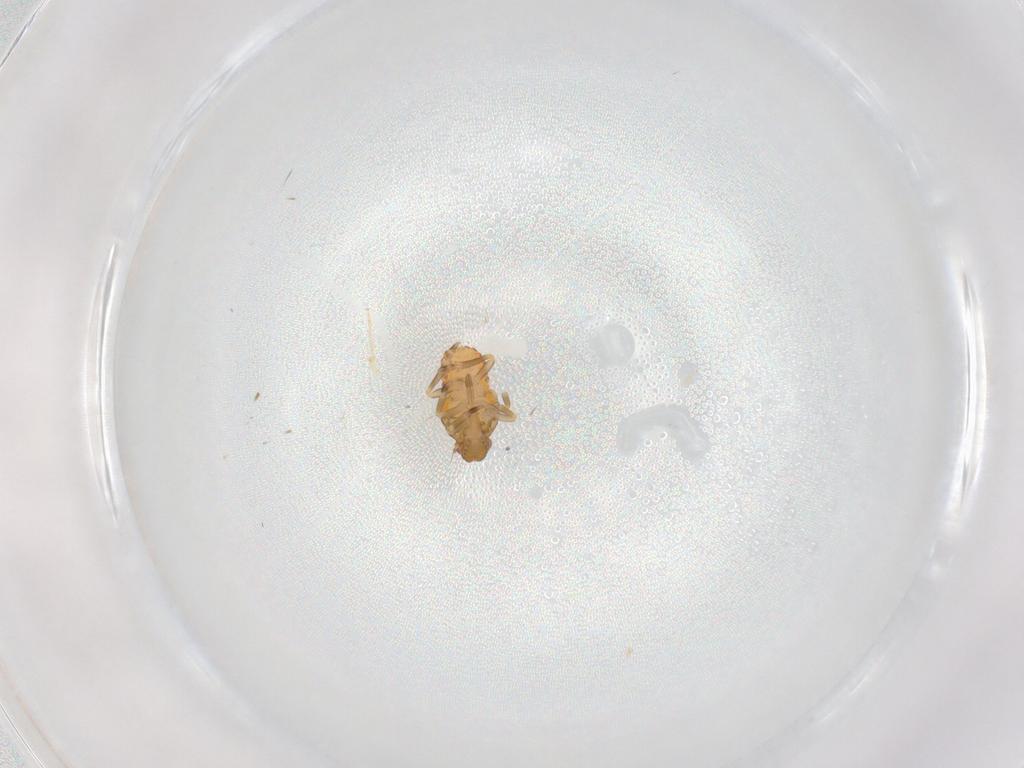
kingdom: Animalia
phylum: Arthropoda
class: Insecta
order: Hemiptera
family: Flatidae
